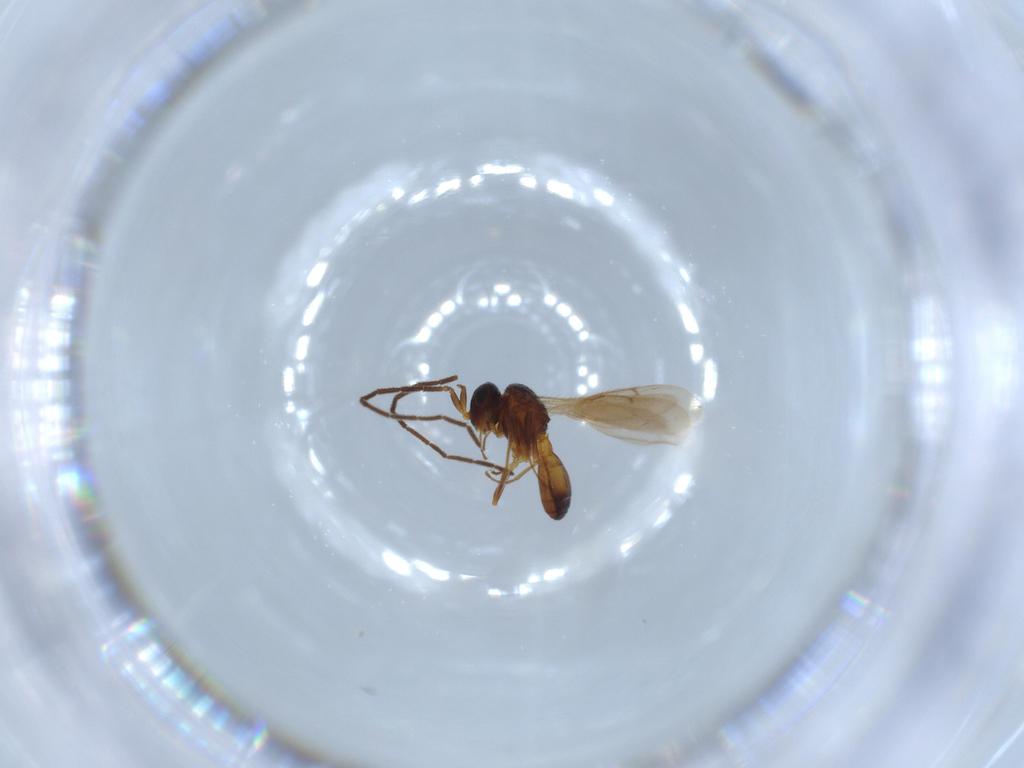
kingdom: Animalia
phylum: Arthropoda
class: Insecta
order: Hymenoptera
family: Scelionidae
